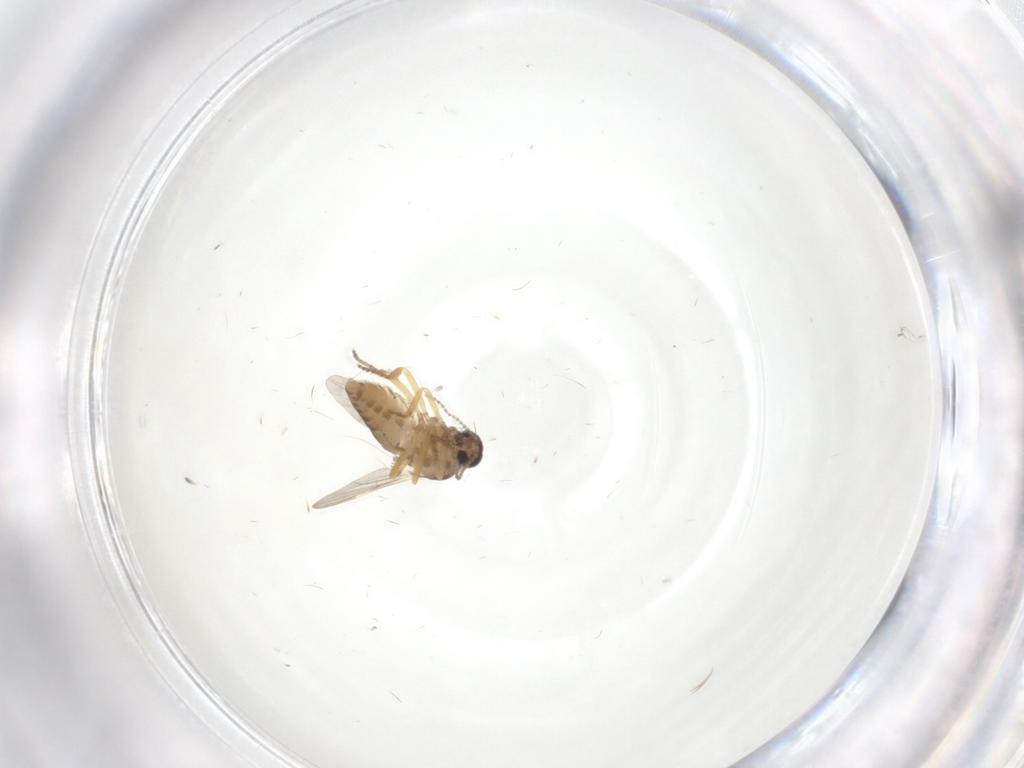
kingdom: Animalia
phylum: Arthropoda
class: Insecta
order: Diptera
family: Ceratopogonidae
